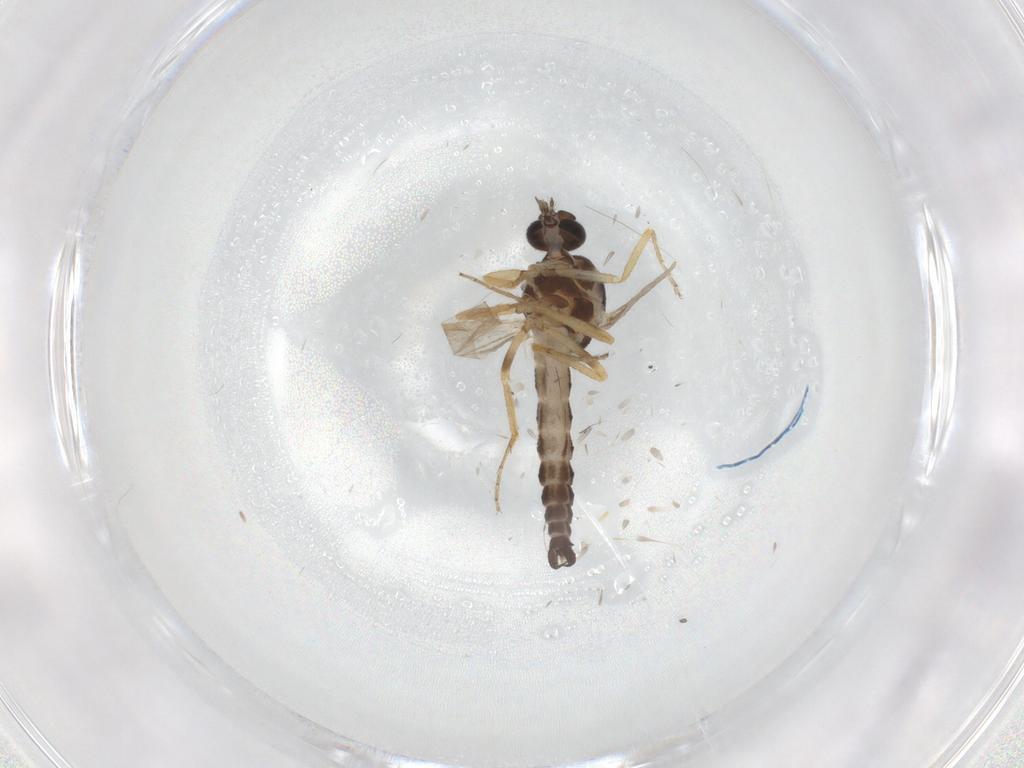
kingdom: Animalia
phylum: Arthropoda
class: Insecta
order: Diptera
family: Ceratopogonidae
